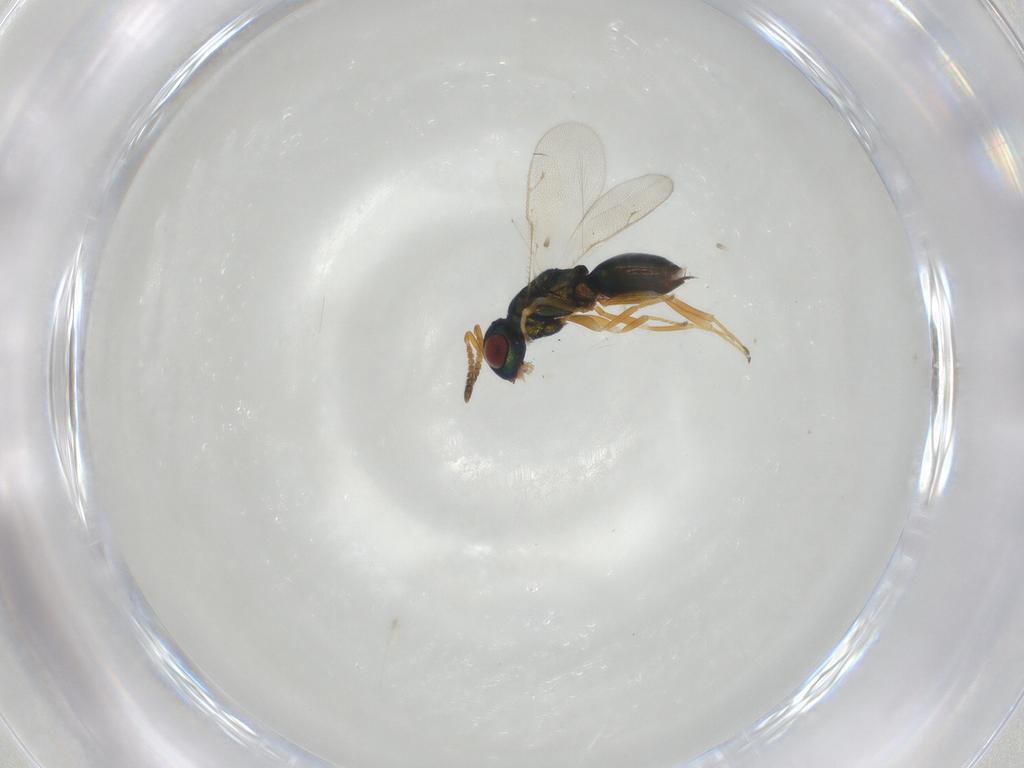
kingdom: Animalia
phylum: Arthropoda
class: Insecta
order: Hymenoptera
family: Pteromalidae
